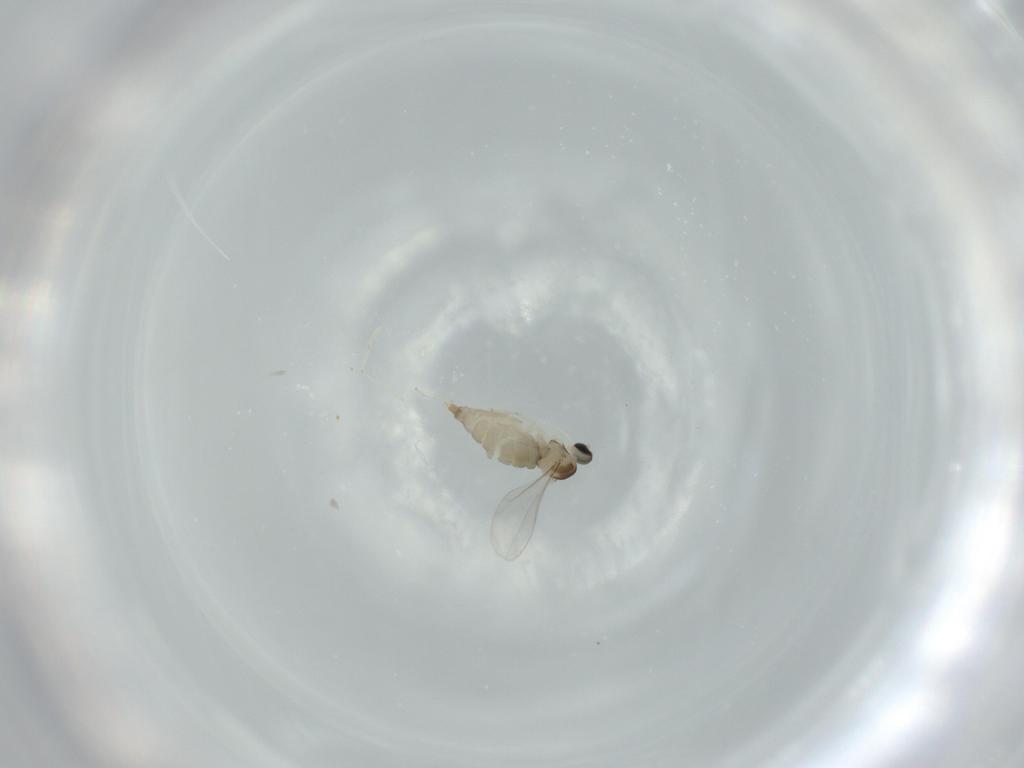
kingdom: Animalia
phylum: Arthropoda
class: Insecta
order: Diptera
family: Milichiidae
